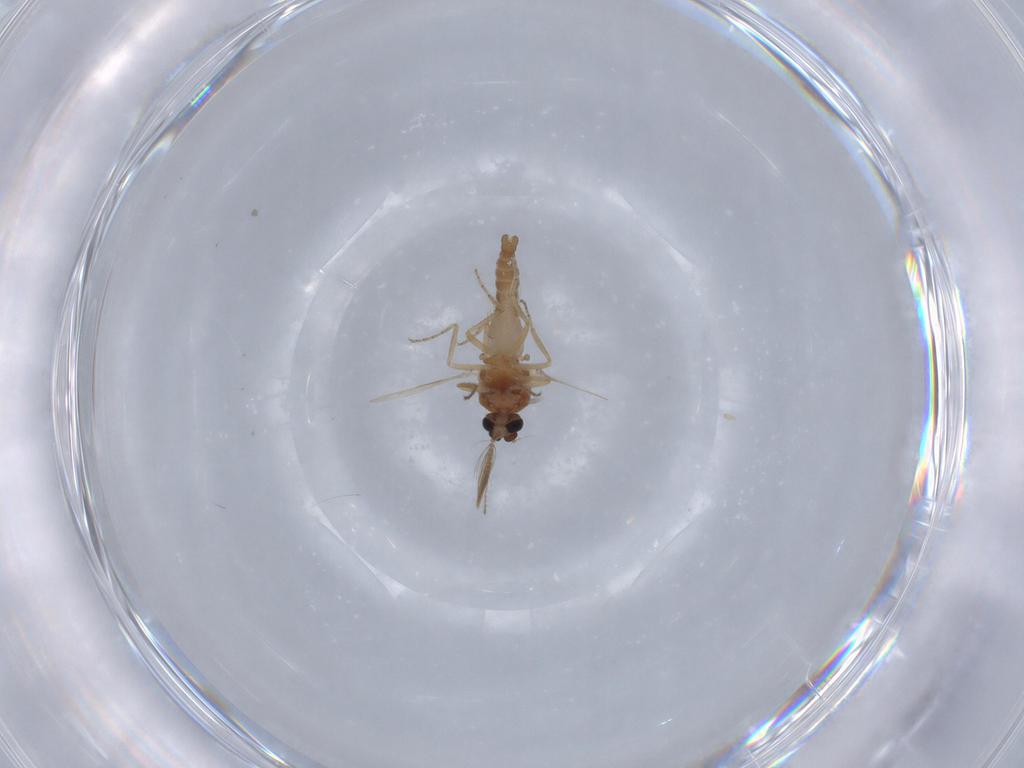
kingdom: Animalia
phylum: Arthropoda
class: Insecta
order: Diptera
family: Ceratopogonidae
